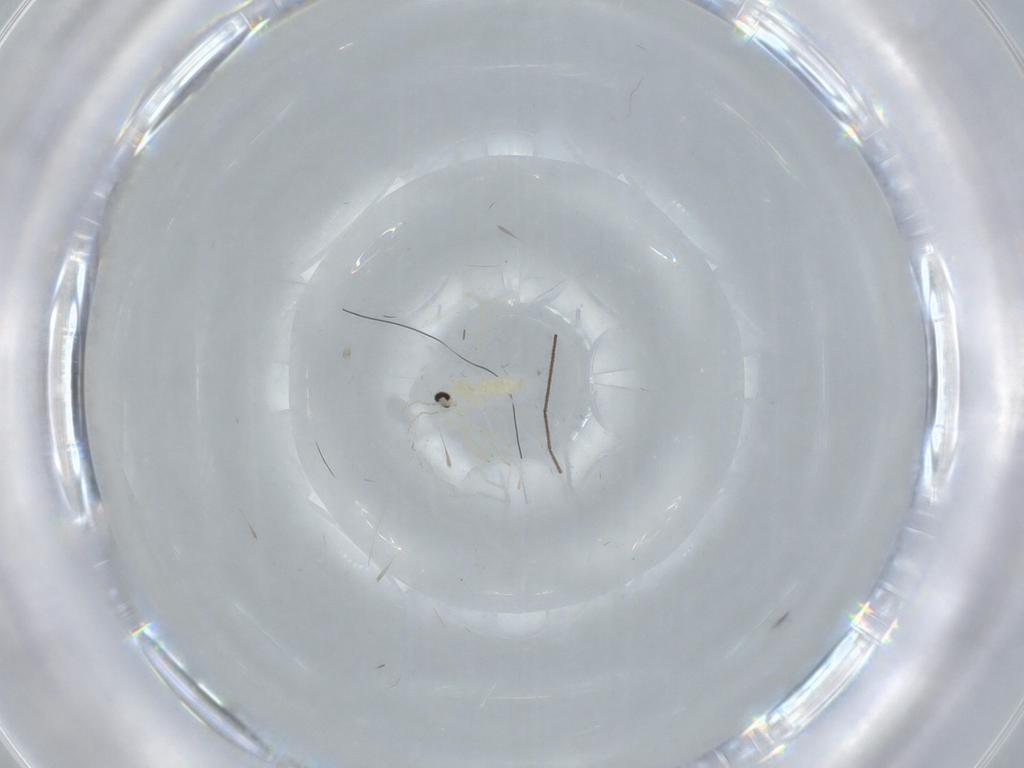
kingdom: Animalia
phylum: Arthropoda
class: Insecta
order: Diptera
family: Cecidomyiidae
